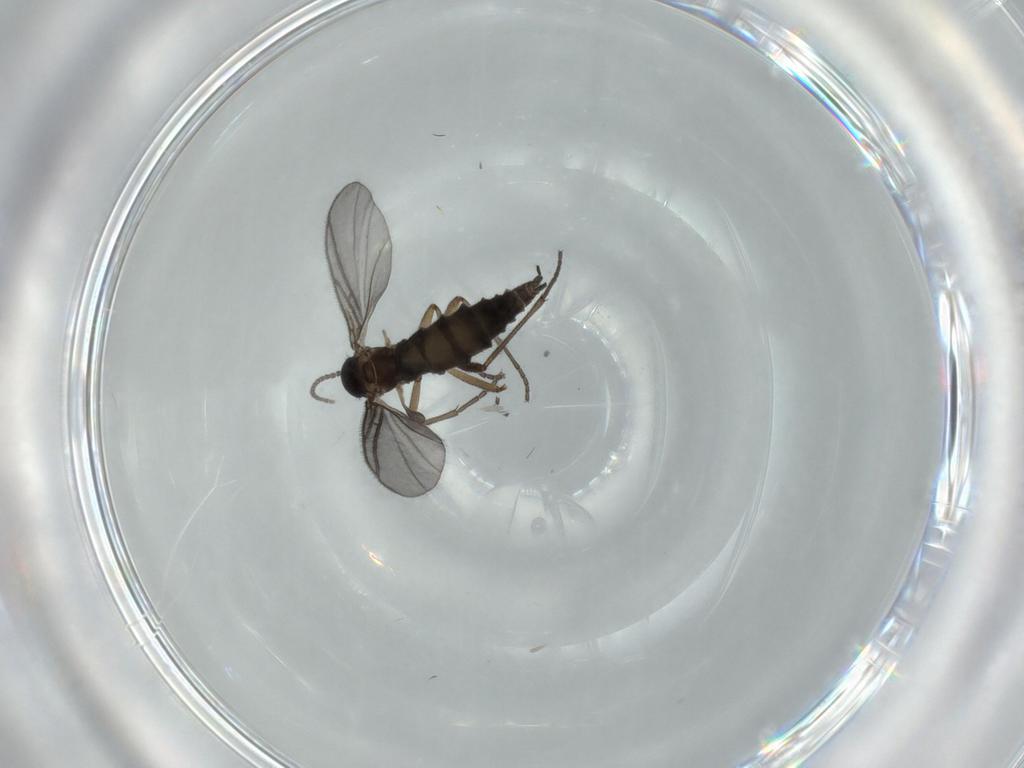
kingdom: Animalia
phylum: Arthropoda
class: Insecta
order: Diptera
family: Sciaridae
